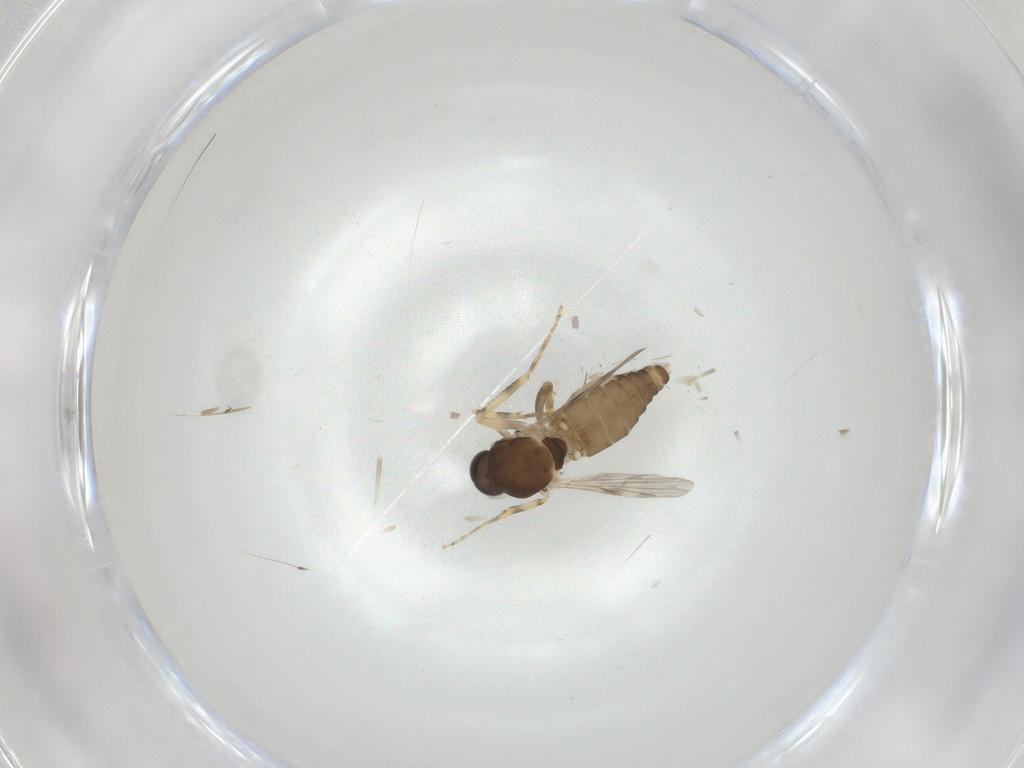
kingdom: Animalia
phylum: Arthropoda
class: Insecta
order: Diptera
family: Ceratopogonidae
